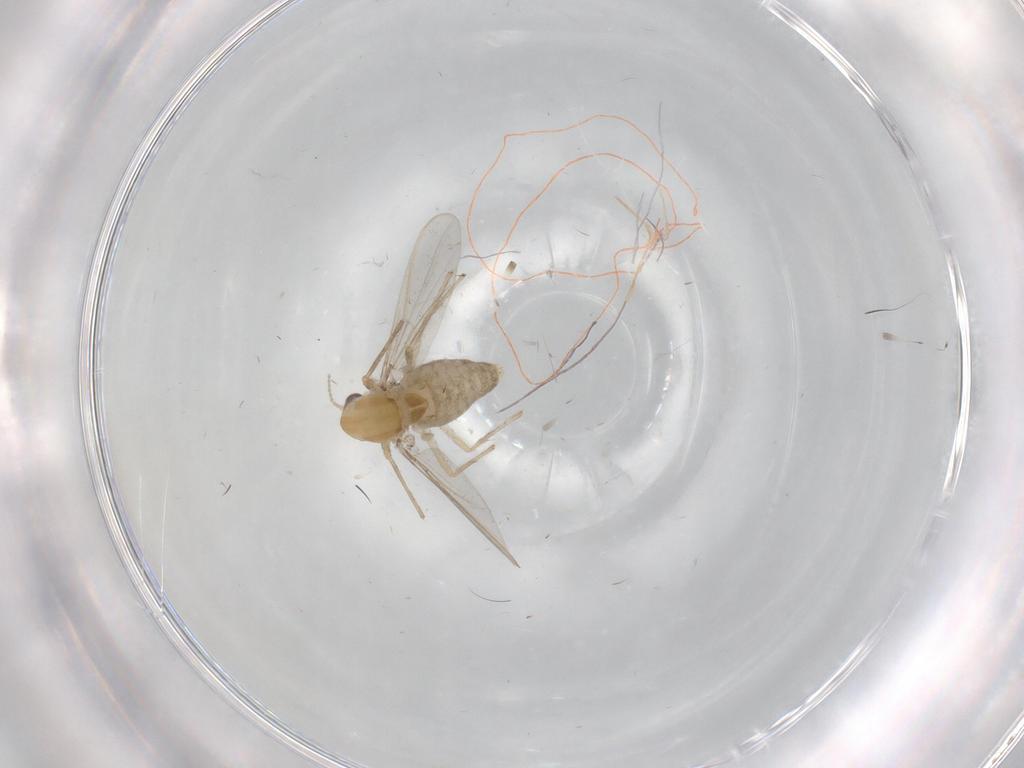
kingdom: Animalia
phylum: Arthropoda
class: Insecta
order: Diptera
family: Chironomidae
